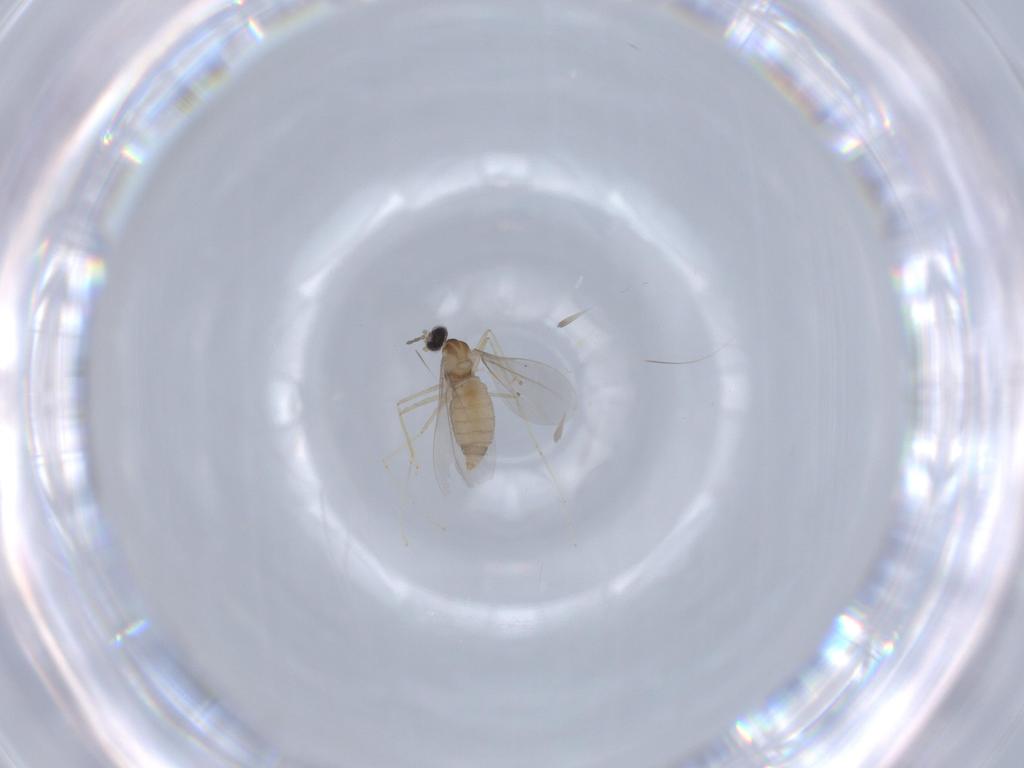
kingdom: Animalia
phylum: Arthropoda
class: Insecta
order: Diptera
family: Cecidomyiidae
